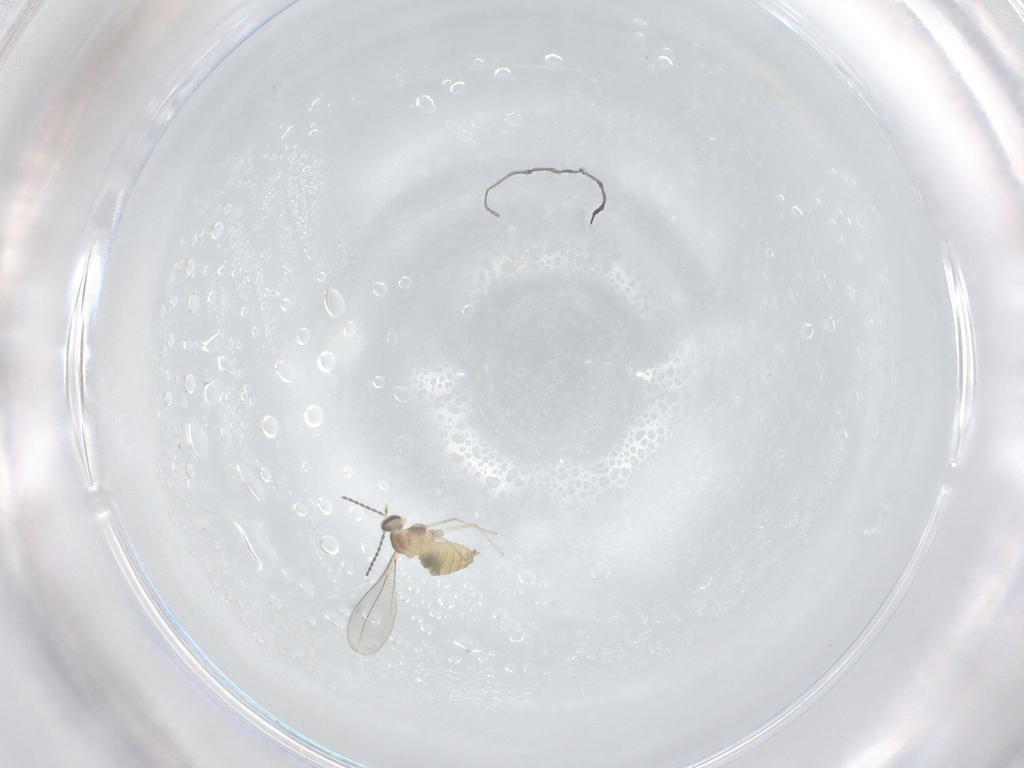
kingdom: Animalia
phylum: Arthropoda
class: Insecta
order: Diptera
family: Cecidomyiidae
